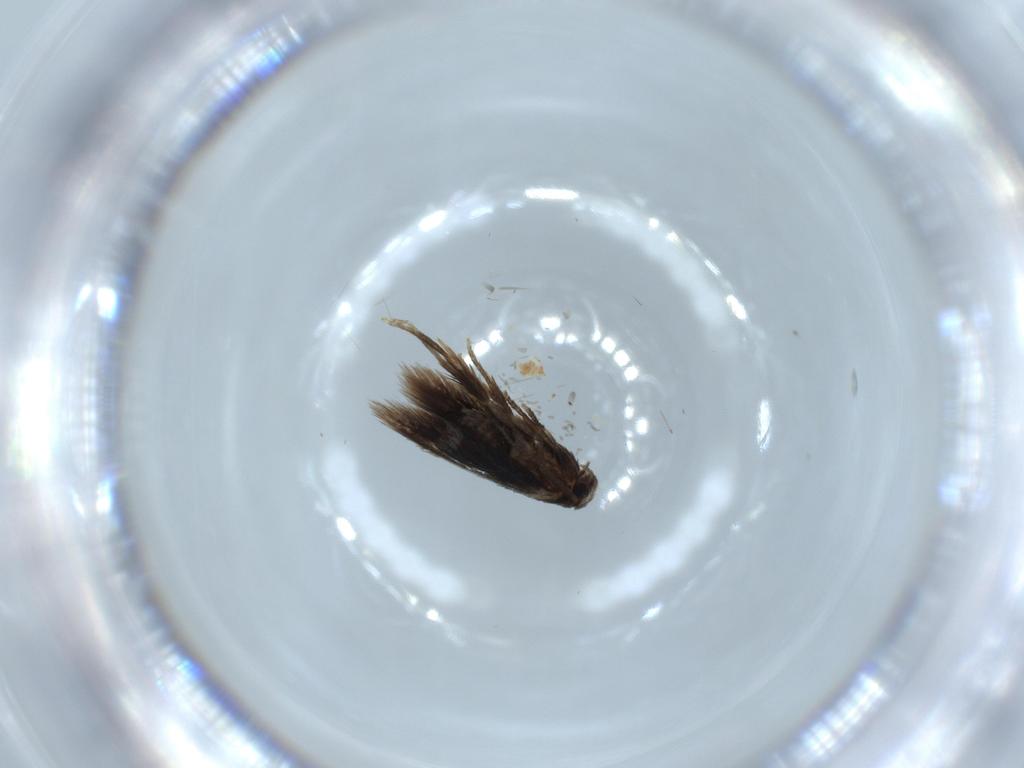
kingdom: Animalia
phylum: Arthropoda
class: Insecta
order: Lepidoptera
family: Nepticulidae
